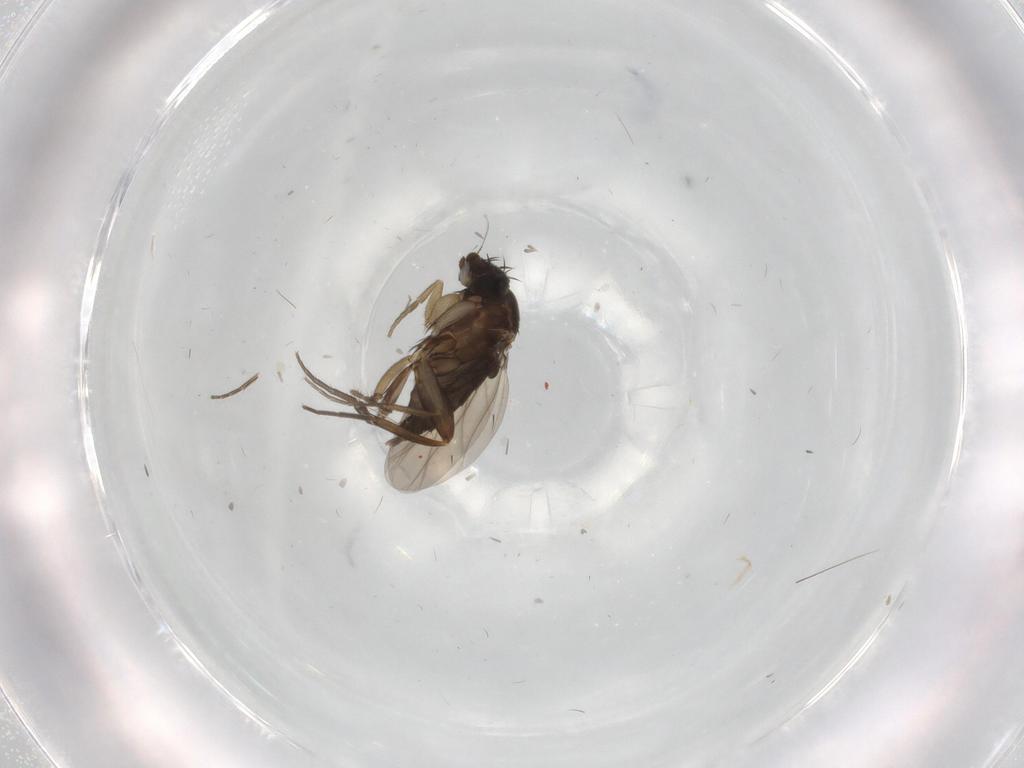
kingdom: Animalia
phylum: Arthropoda
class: Insecta
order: Diptera
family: Phoridae
